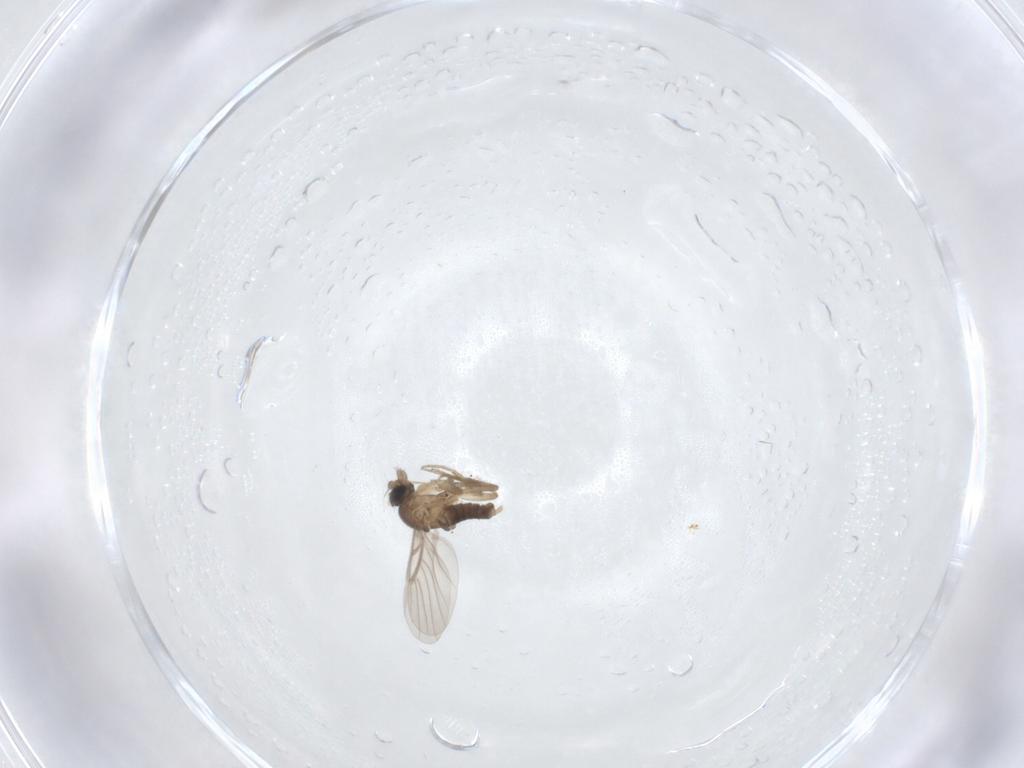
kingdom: Animalia
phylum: Arthropoda
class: Insecta
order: Diptera
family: Phoridae
